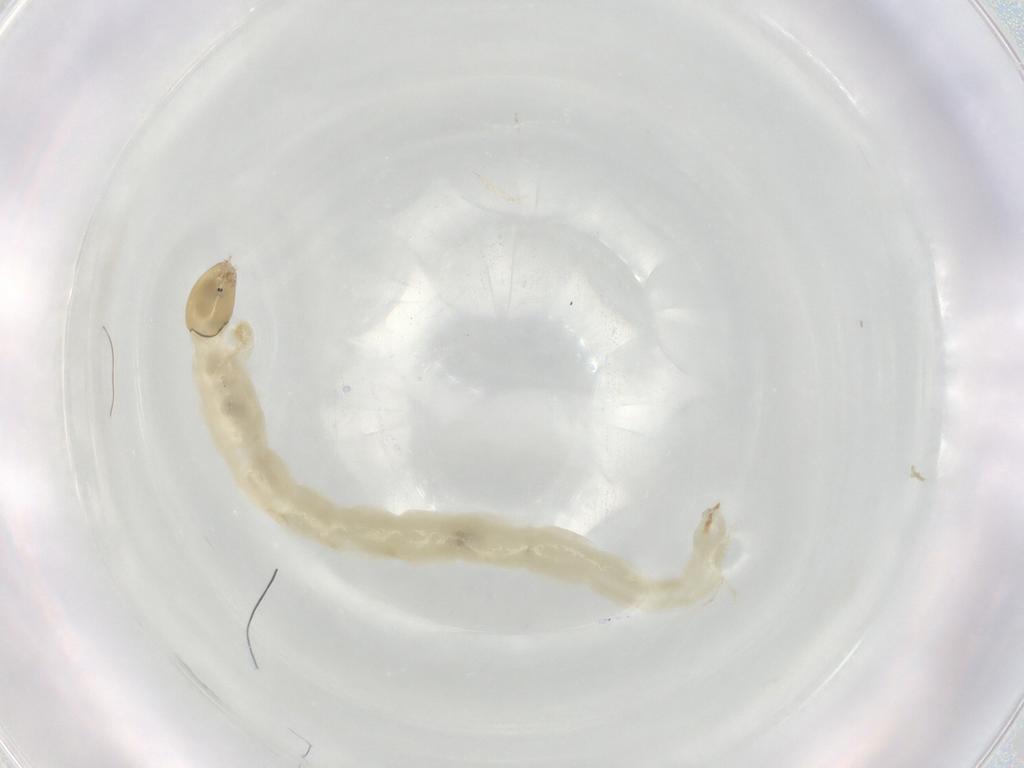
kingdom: Animalia
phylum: Arthropoda
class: Insecta
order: Diptera
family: Chironomidae
